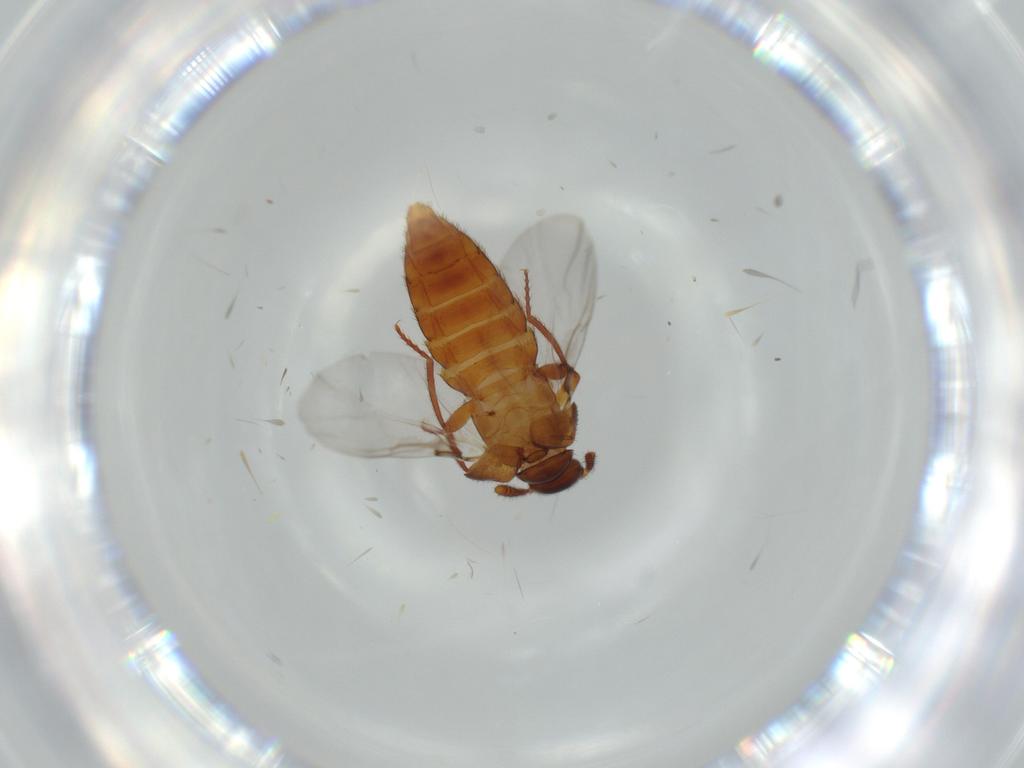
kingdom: Animalia
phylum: Arthropoda
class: Insecta
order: Coleoptera
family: Staphylinidae
